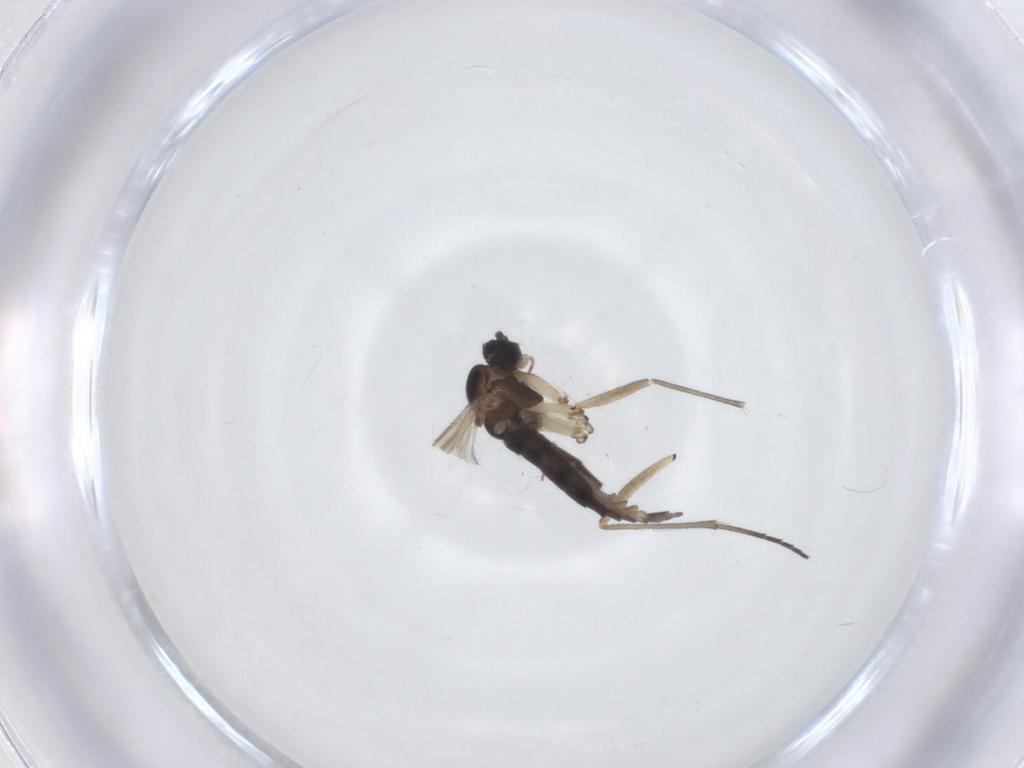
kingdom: Animalia
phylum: Arthropoda
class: Insecta
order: Diptera
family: Sciaridae
